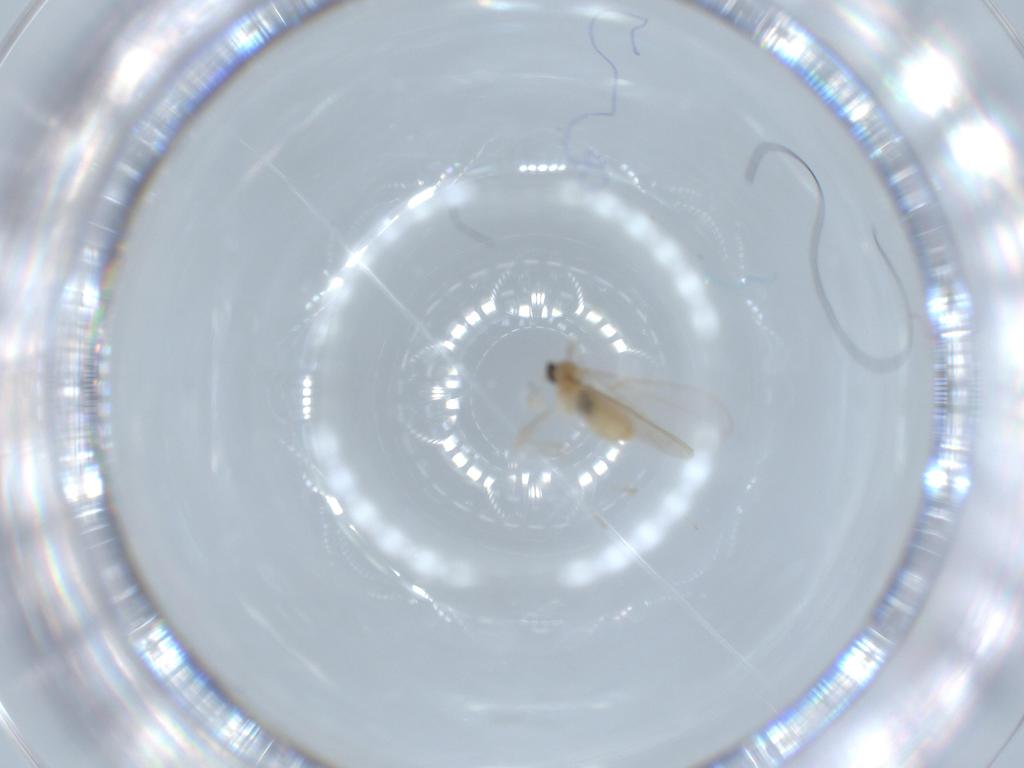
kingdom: Animalia
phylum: Arthropoda
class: Insecta
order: Diptera
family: Cecidomyiidae
